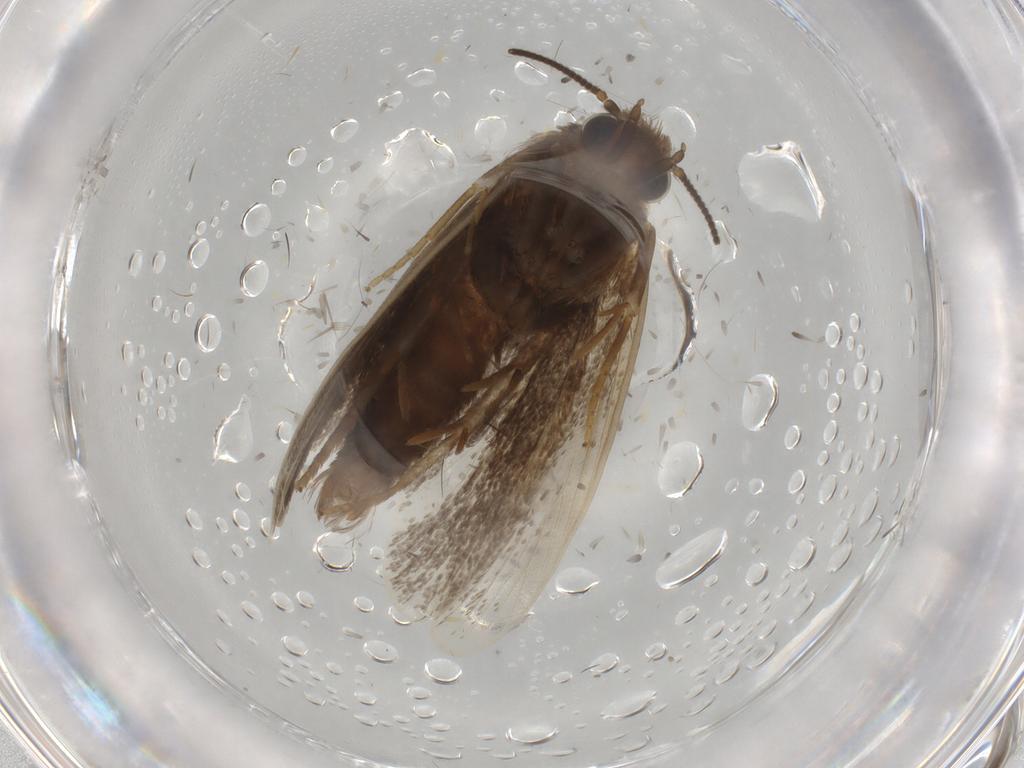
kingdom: Animalia
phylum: Arthropoda
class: Insecta
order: Lepidoptera
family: Tineidae
